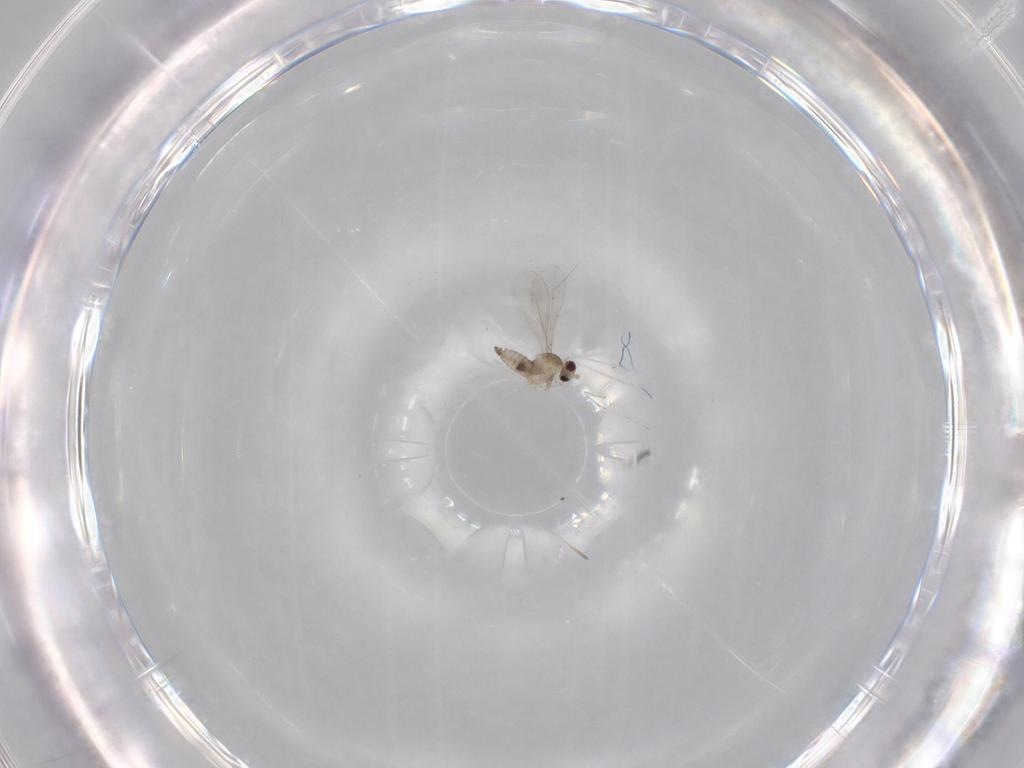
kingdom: Animalia
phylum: Arthropoda
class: Insecta
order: Diptera
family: Cecidomyiidae
